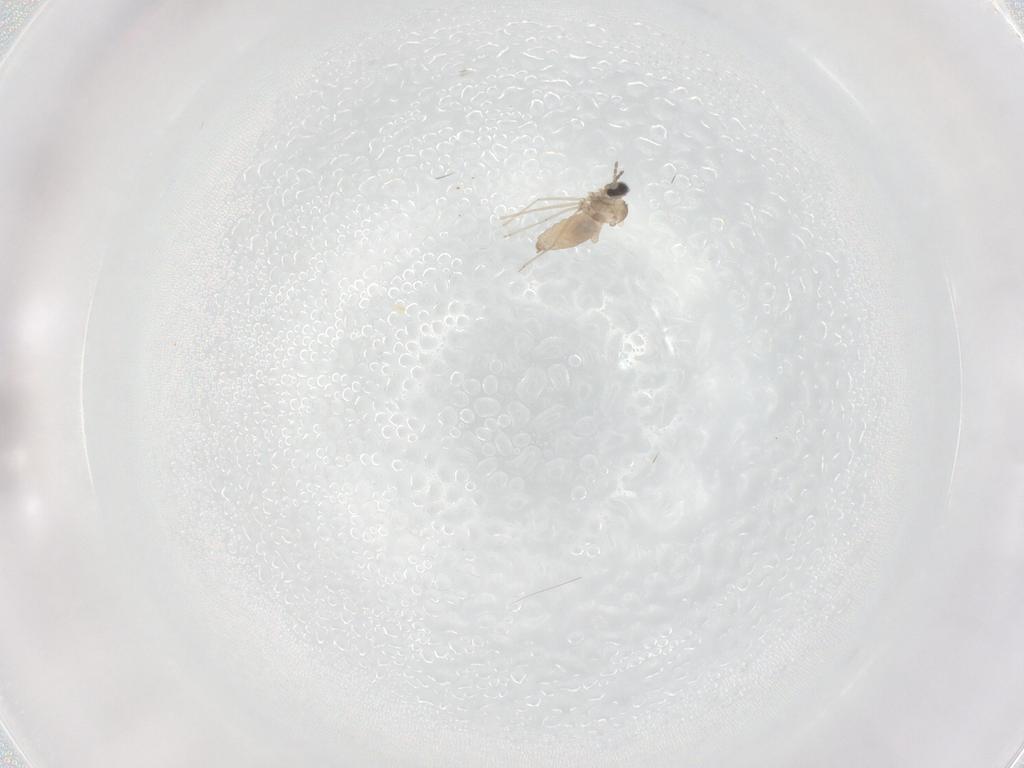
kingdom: Animalia
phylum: Arthropoda
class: Insecta
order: Diptera
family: Cecidomyiidae
